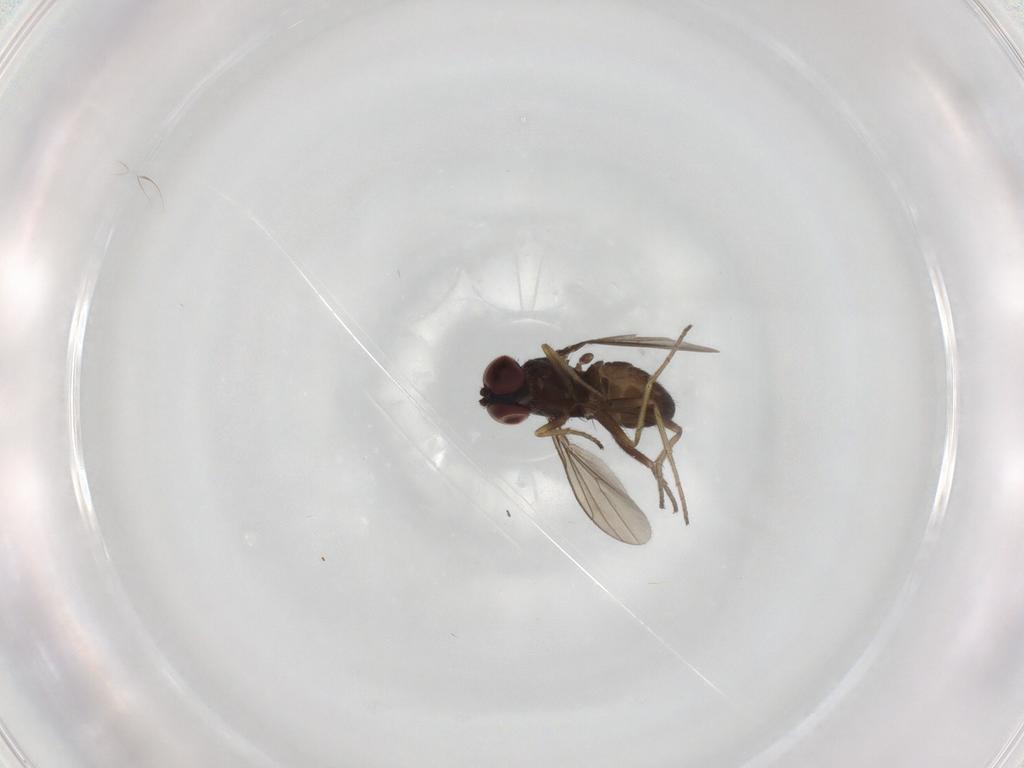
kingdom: Animalia
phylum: Arthropoda
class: Insecta
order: Diptera
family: Dolichopodidae
